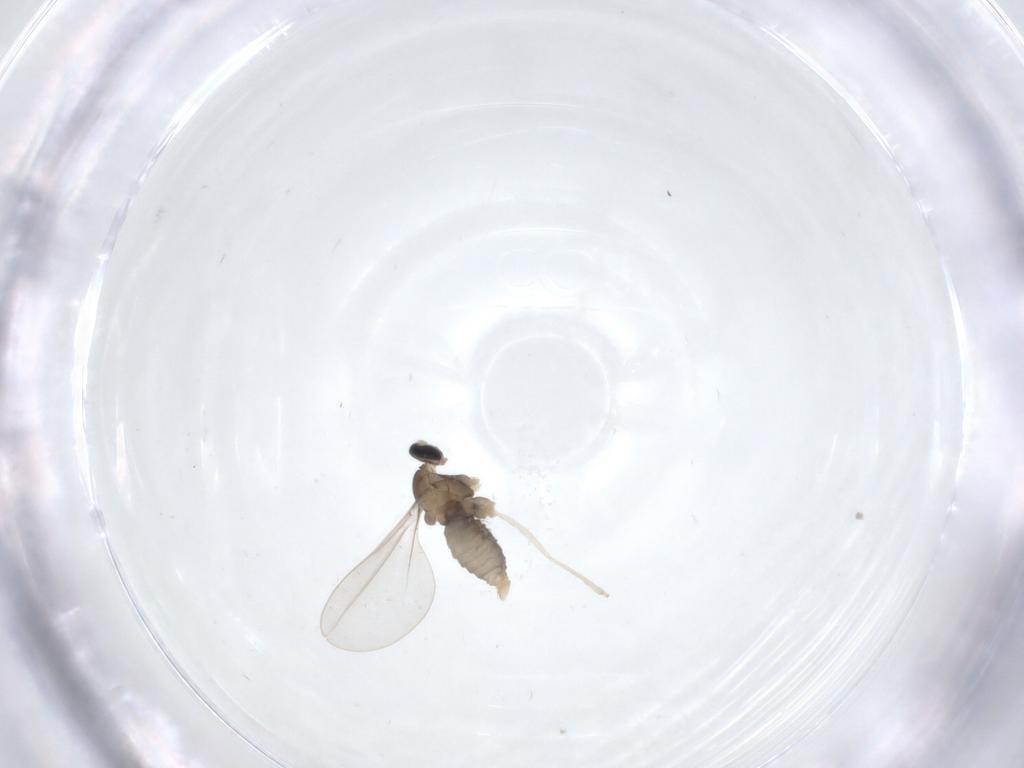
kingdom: Animalia
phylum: Arthropoda
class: Insecta
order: Diptera
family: Cecidomyiidae
